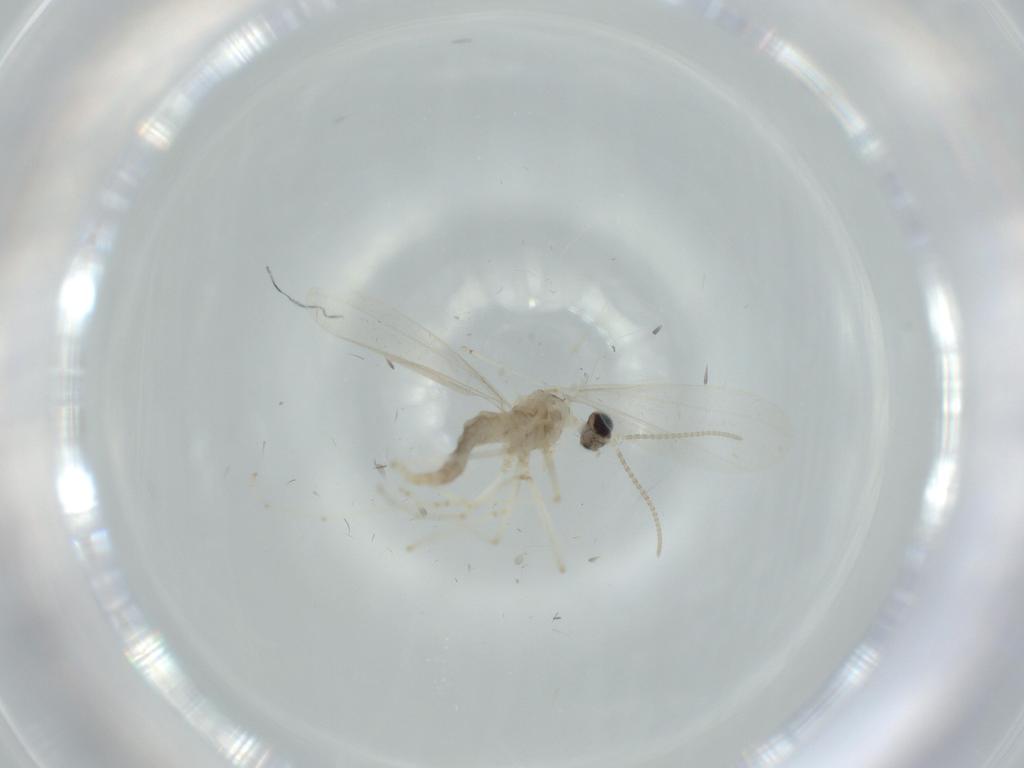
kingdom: Animalia
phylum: Arthropoda
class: Insecta
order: Diptera
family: Cecidomyiidae
